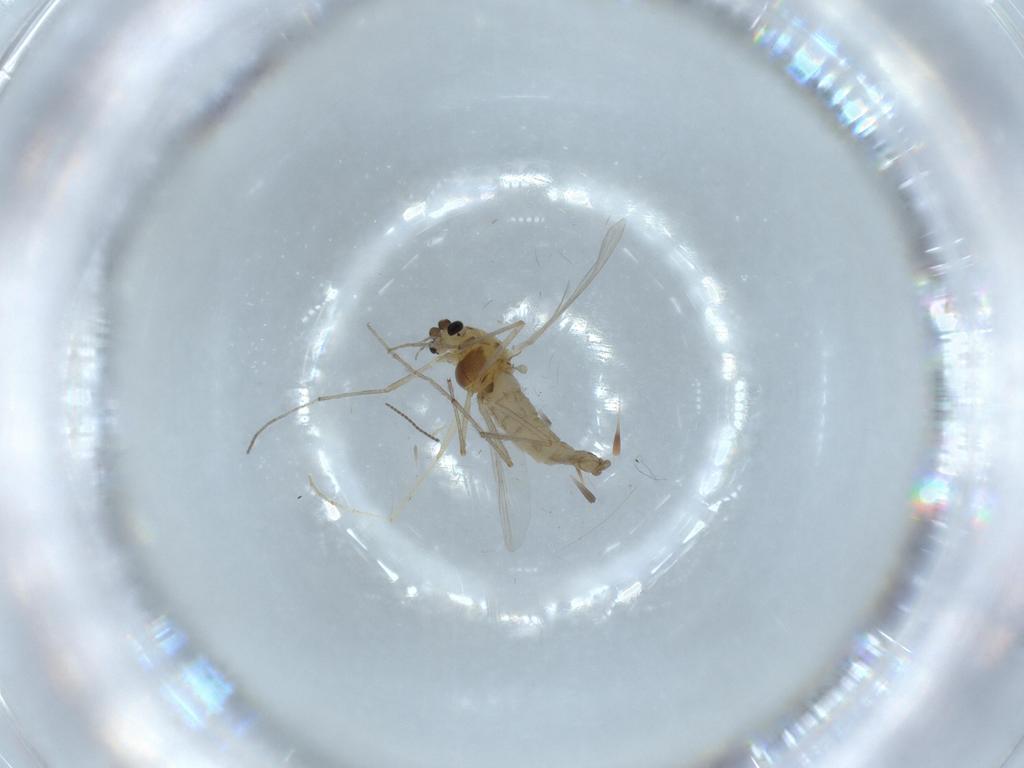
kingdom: Animalia
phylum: Arthropoda
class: Insecta
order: Diptera
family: Chironomidae
